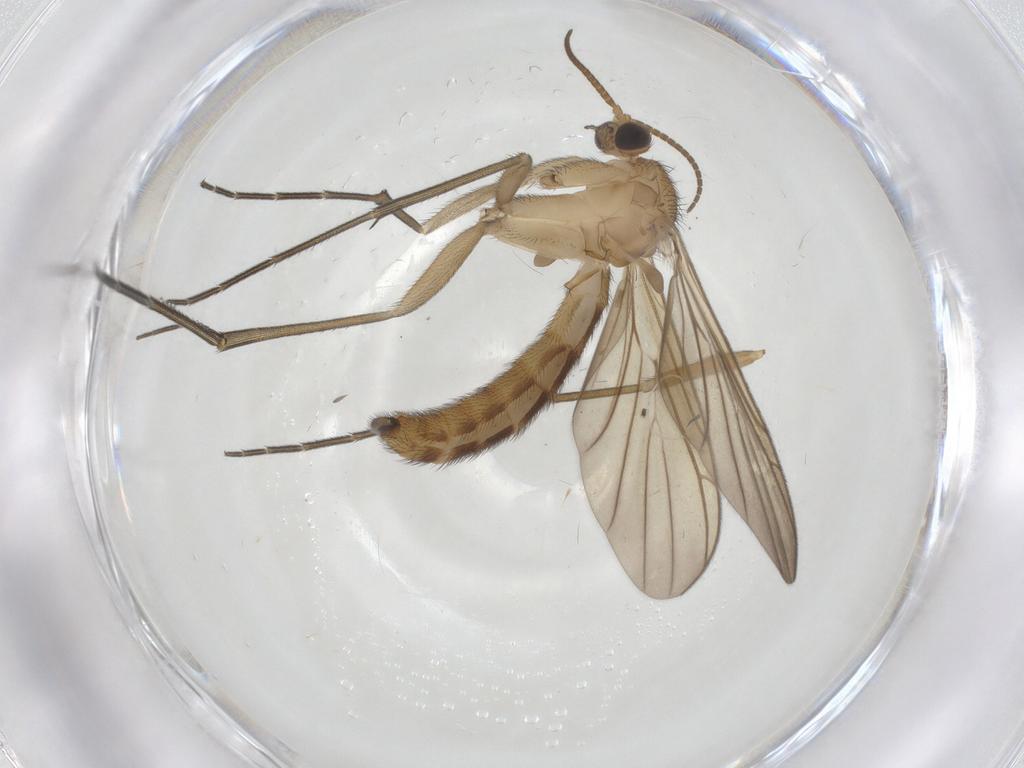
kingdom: Animalia
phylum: Arthropoda
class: Insecta
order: Diptera
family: Keroplatidae
